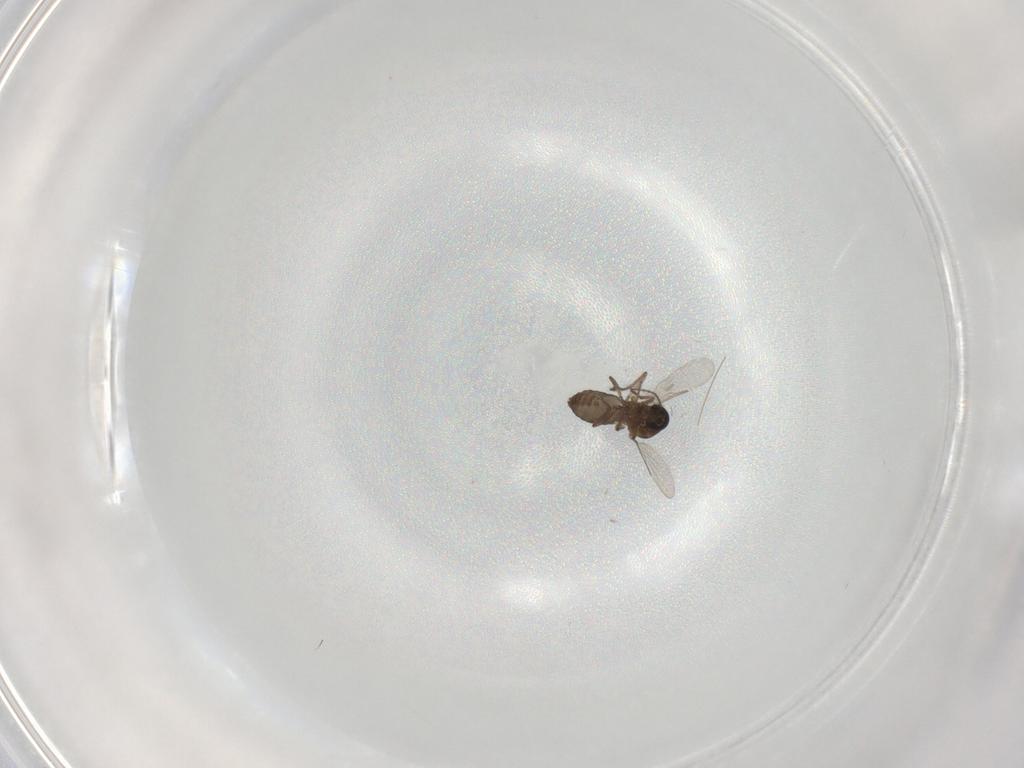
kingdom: Animalia
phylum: Arthropoda
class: Insecta
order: Diptera
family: Ceratopogonidae
